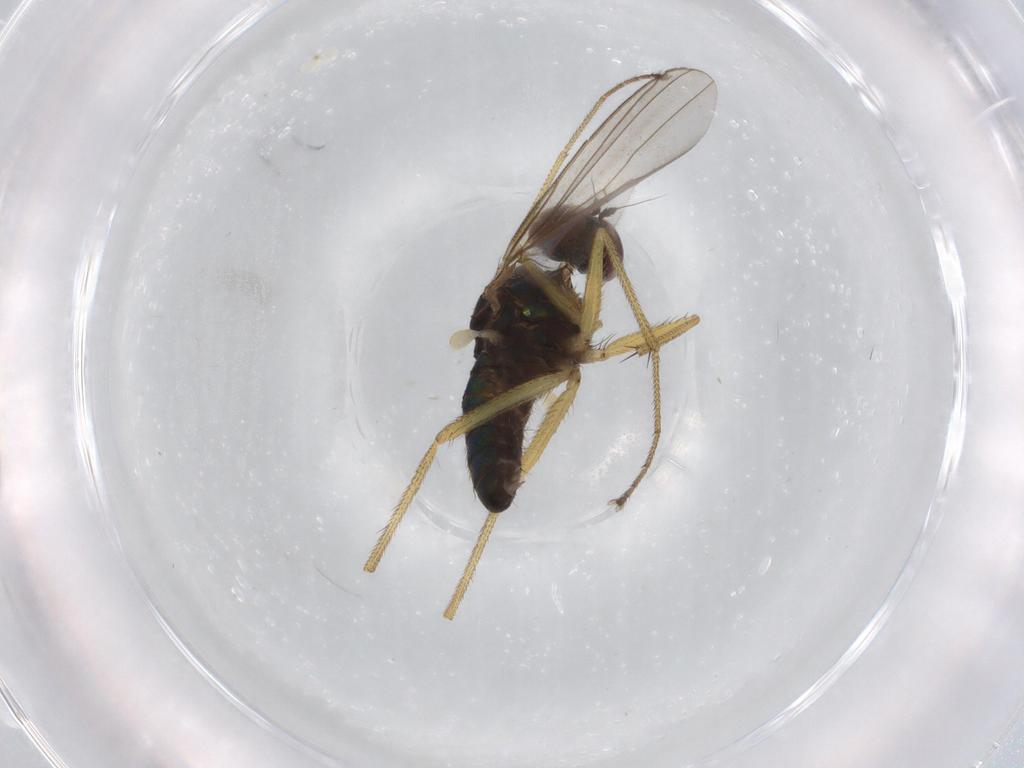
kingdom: Animalia
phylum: Arthropoda
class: Insecta
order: Diptera
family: Dolichopodidae
